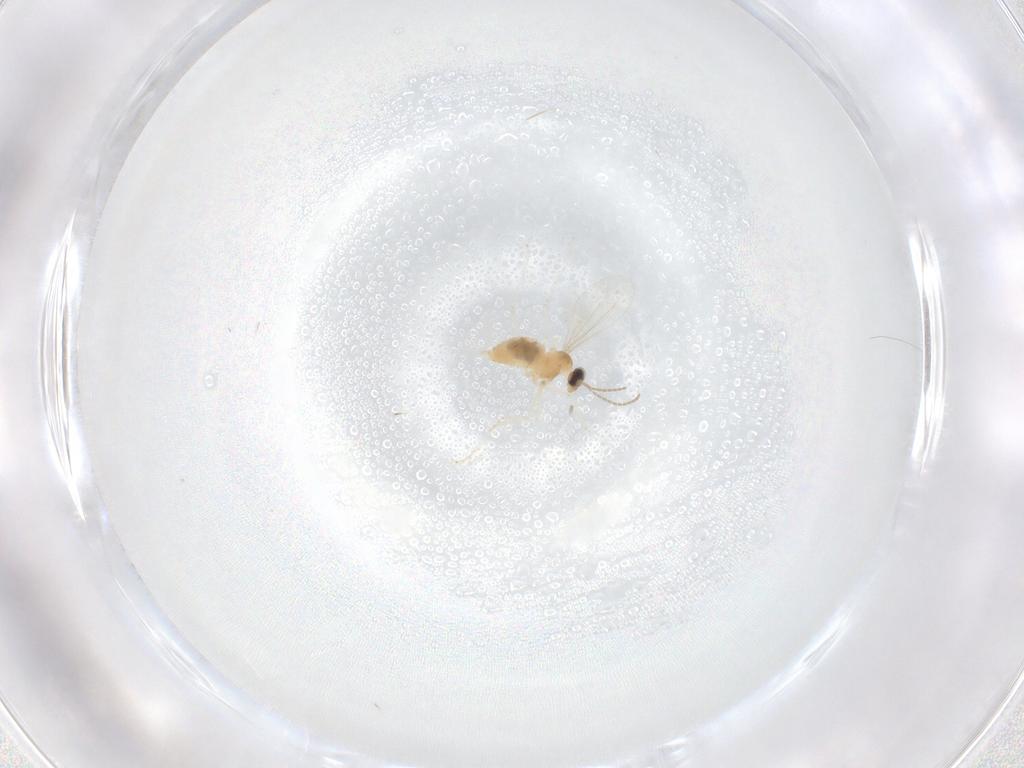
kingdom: Animalia
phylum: Arthropoda
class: Insecta
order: Diptera
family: Cecidomyiidae
